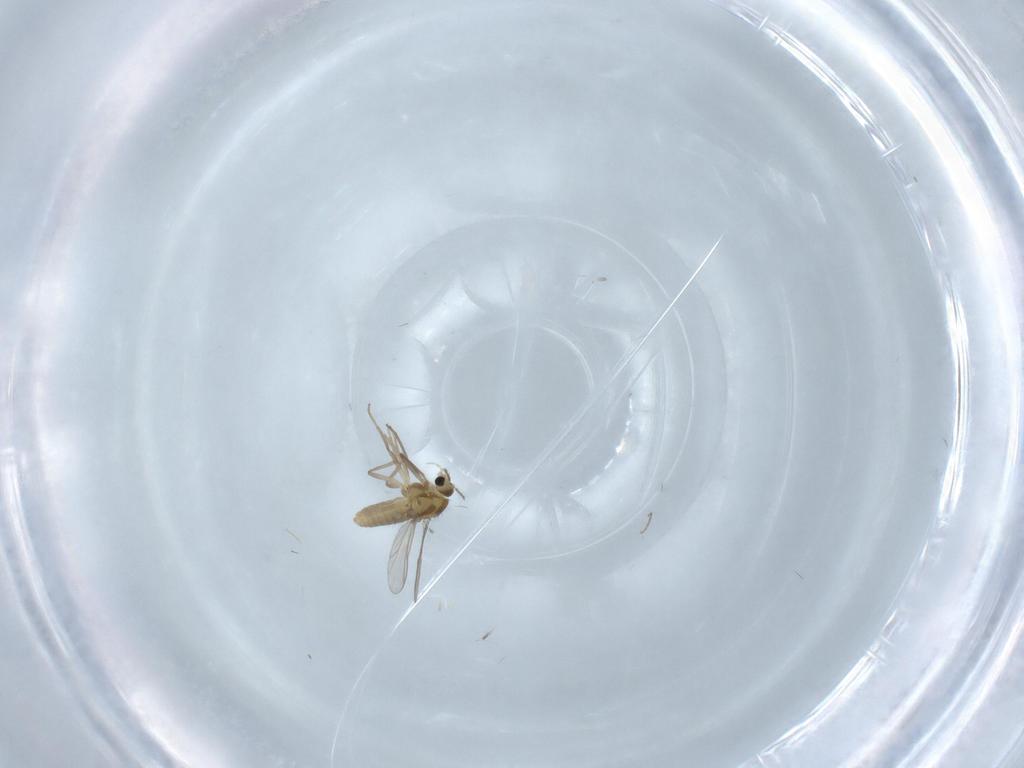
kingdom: Animalia
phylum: Arthropoda
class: Insecta
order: Diptera
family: Chironomidae
